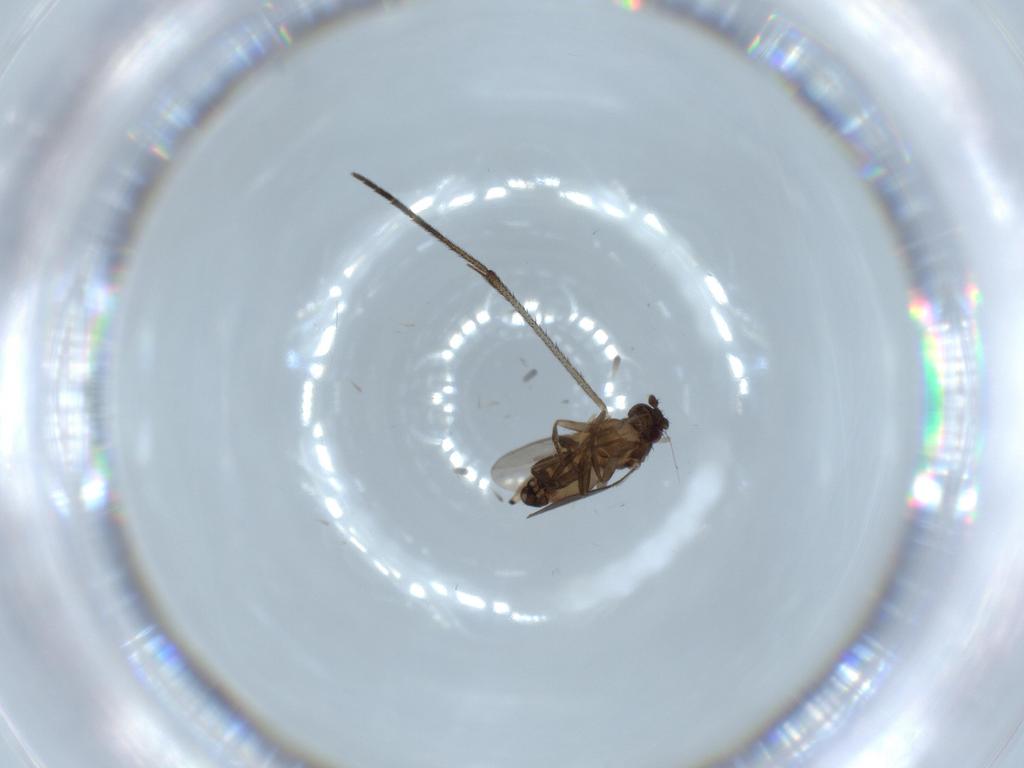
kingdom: Animalia
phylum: Arthropoda
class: Insecta
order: Diptera
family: Sphaeroceridae
